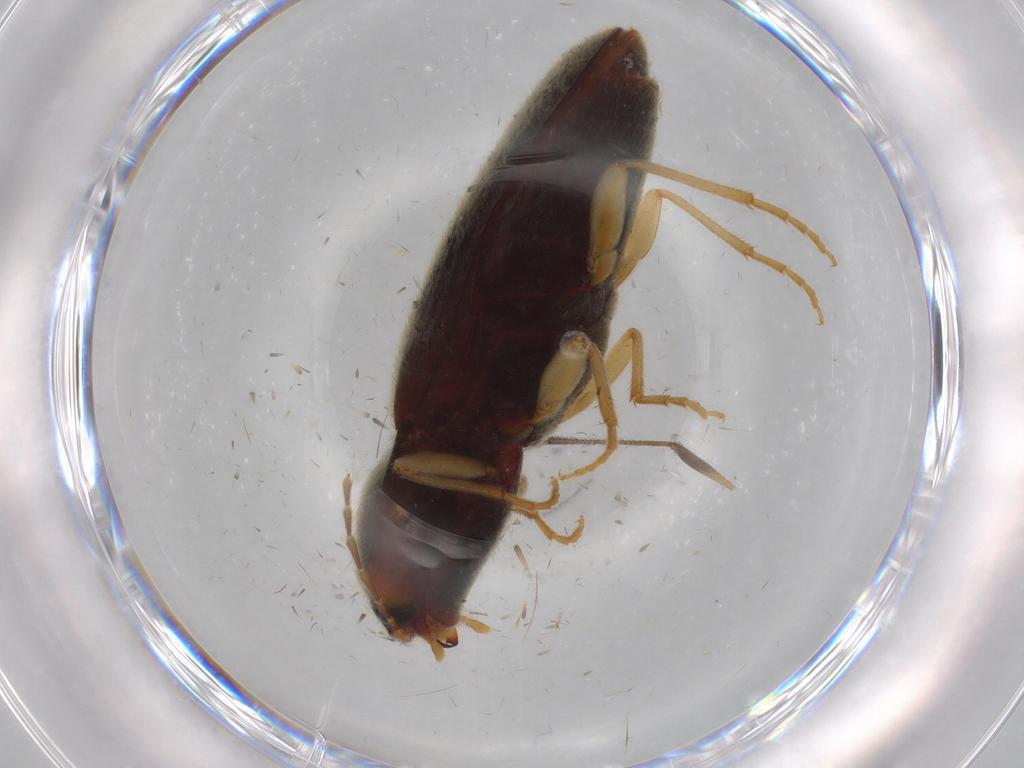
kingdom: Animalia
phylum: Arthropoda
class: Insecta
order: Coleoptera
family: Elateridae
